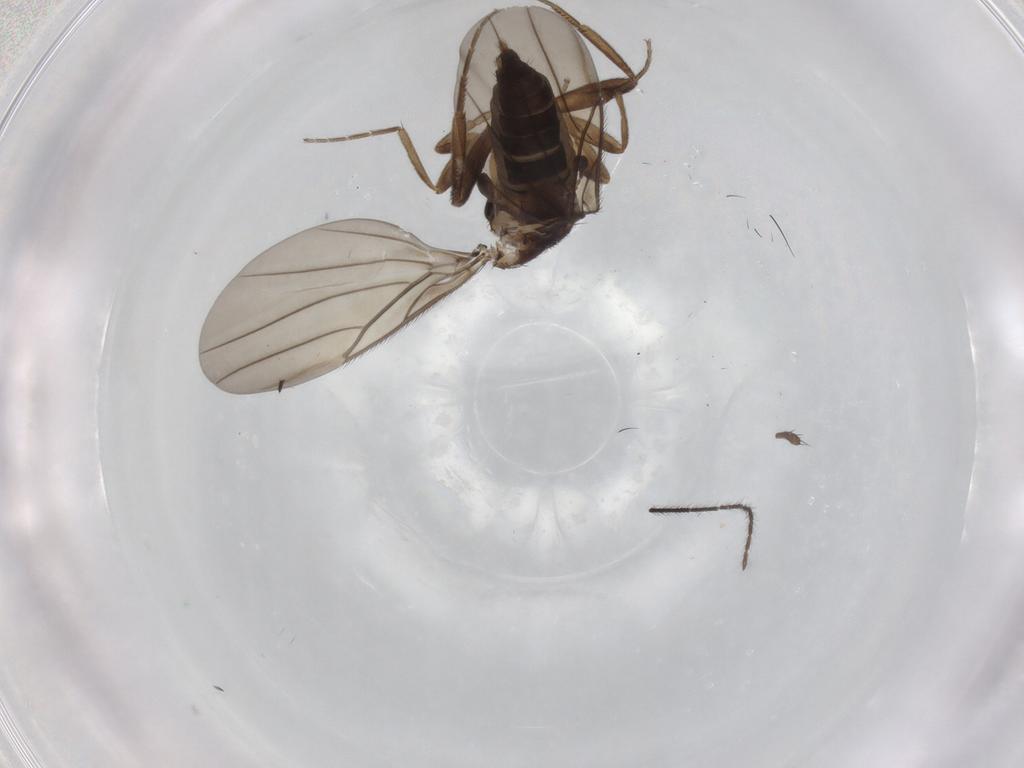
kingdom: Animalia
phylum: Arthropoda
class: Insecta
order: Diptera
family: Phoridae
